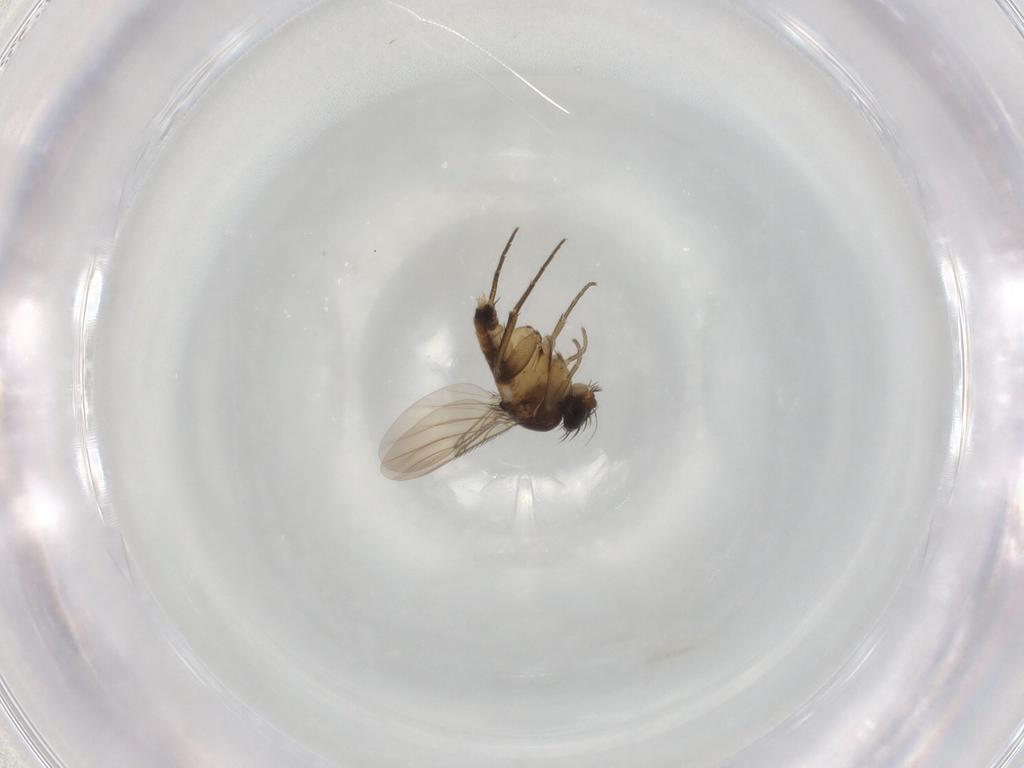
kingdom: Animalia
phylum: Arthropoda
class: Insecta
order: Diptera
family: Phoridae
